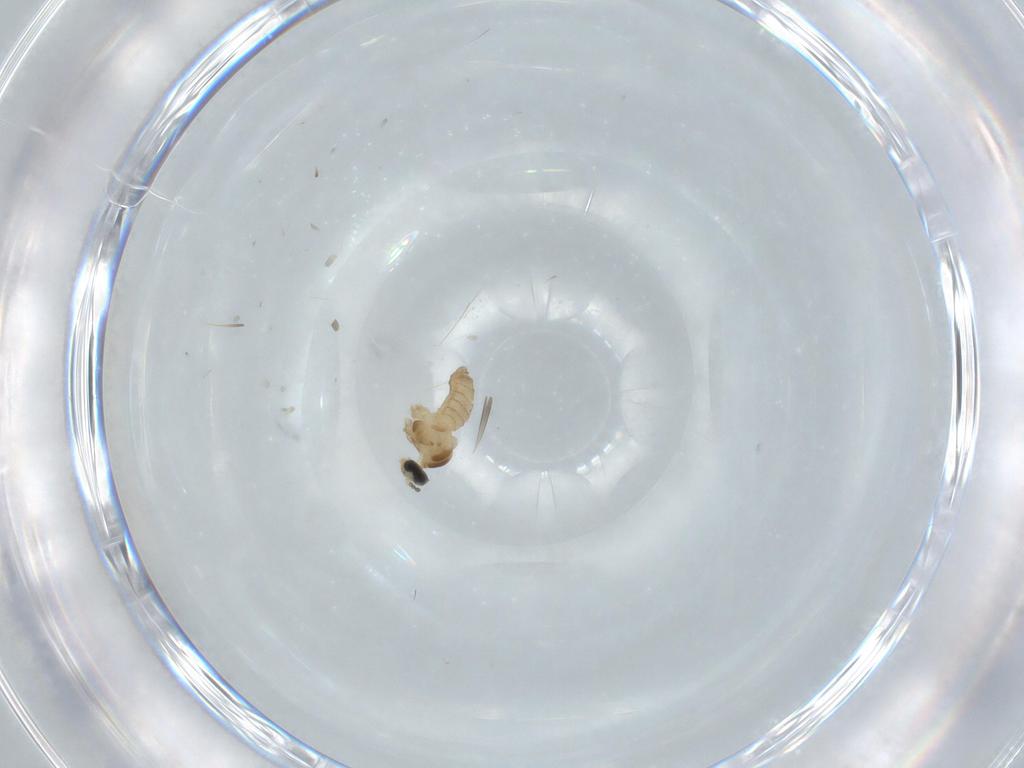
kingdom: Animalia
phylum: Arthropoda
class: Insecta
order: Diptera
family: Cecidomyiidae
